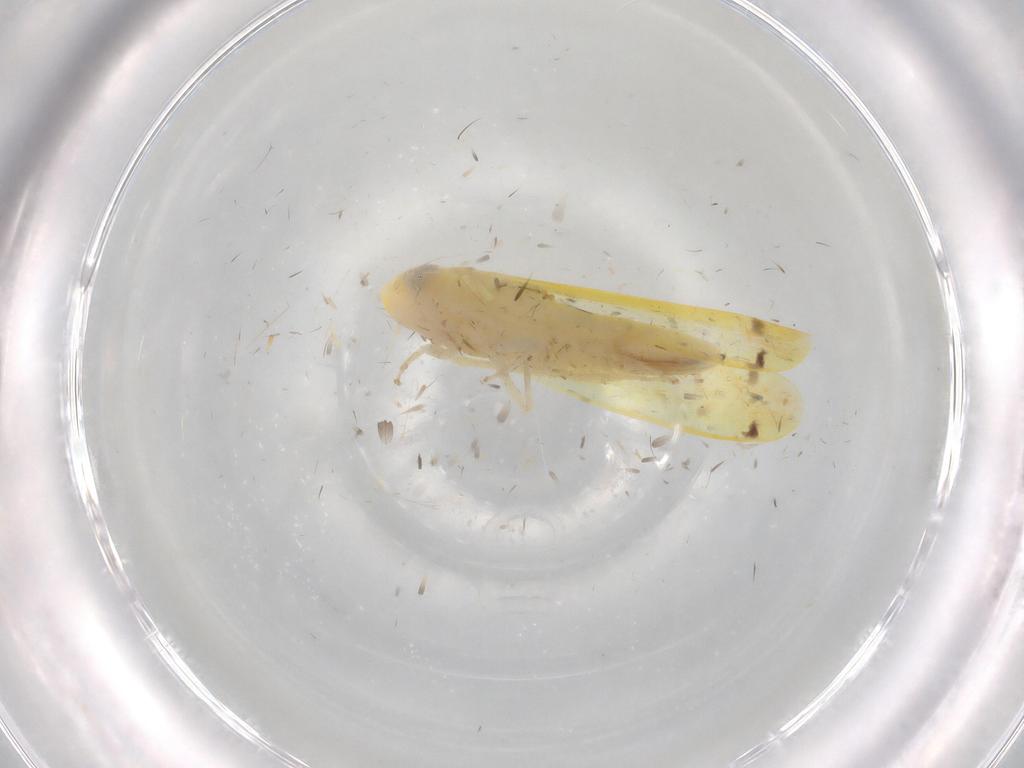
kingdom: Animalia
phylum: Arthropoda
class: Insecta
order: Hemiptera
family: Cicadellidae
